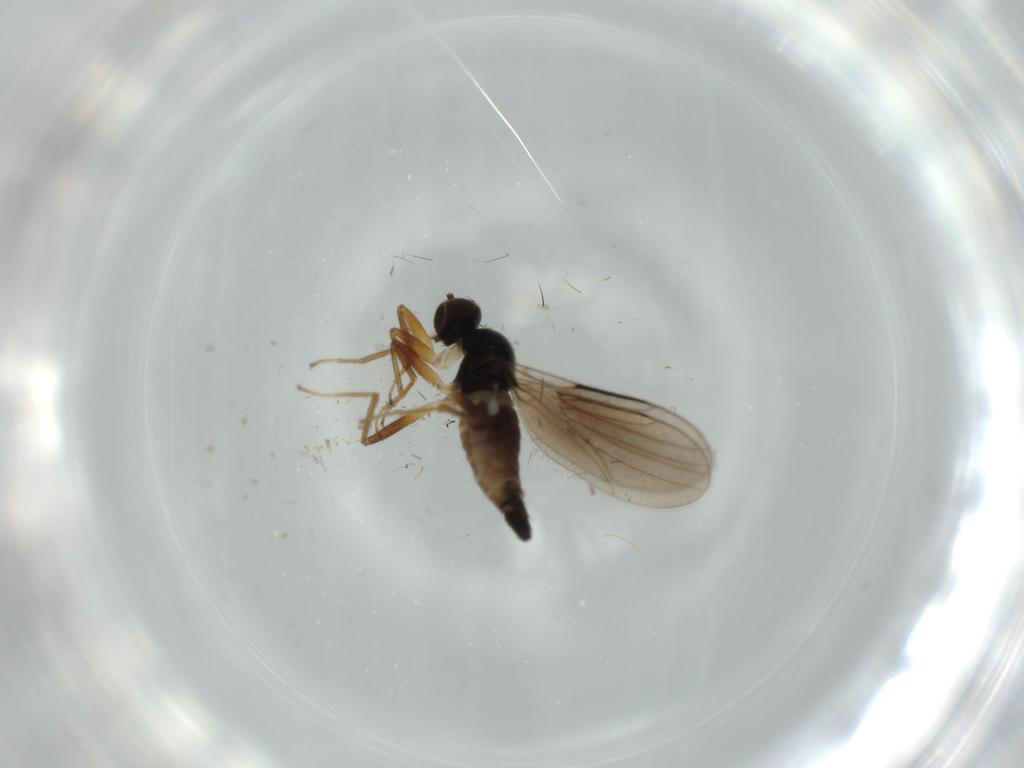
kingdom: Animalia
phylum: Arthropoda
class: Insecta
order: Diptera
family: Hybotidae
